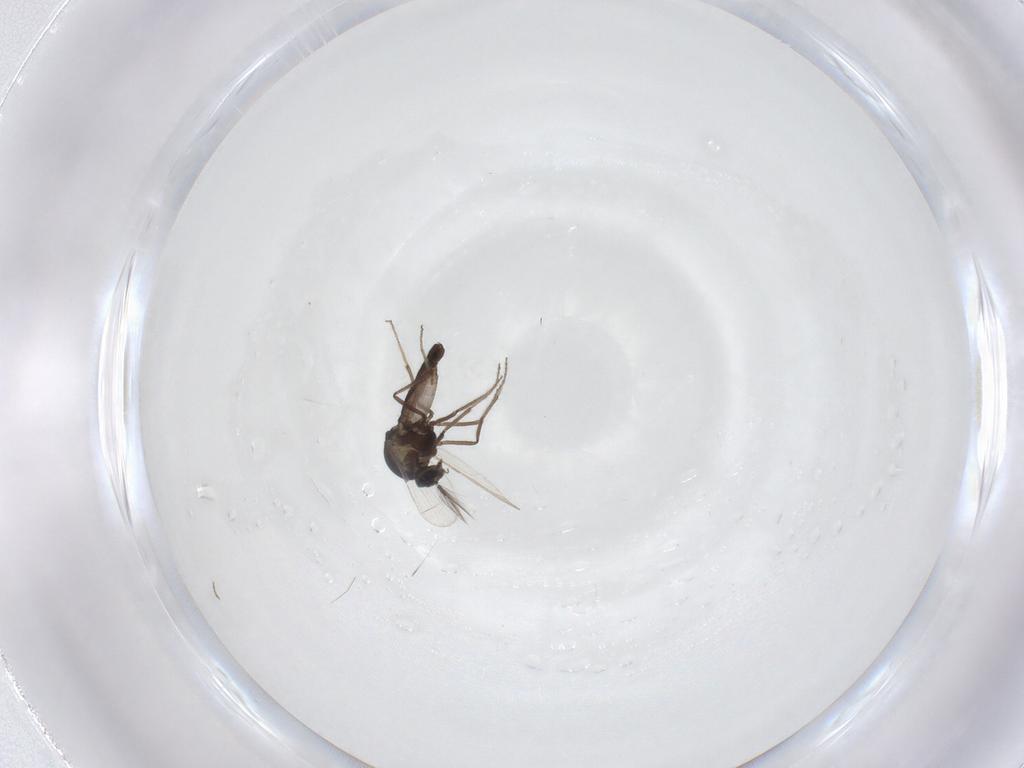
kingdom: Animalia
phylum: Arthropoda
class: Insecta
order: Diptera
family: Ceratopogonidae
